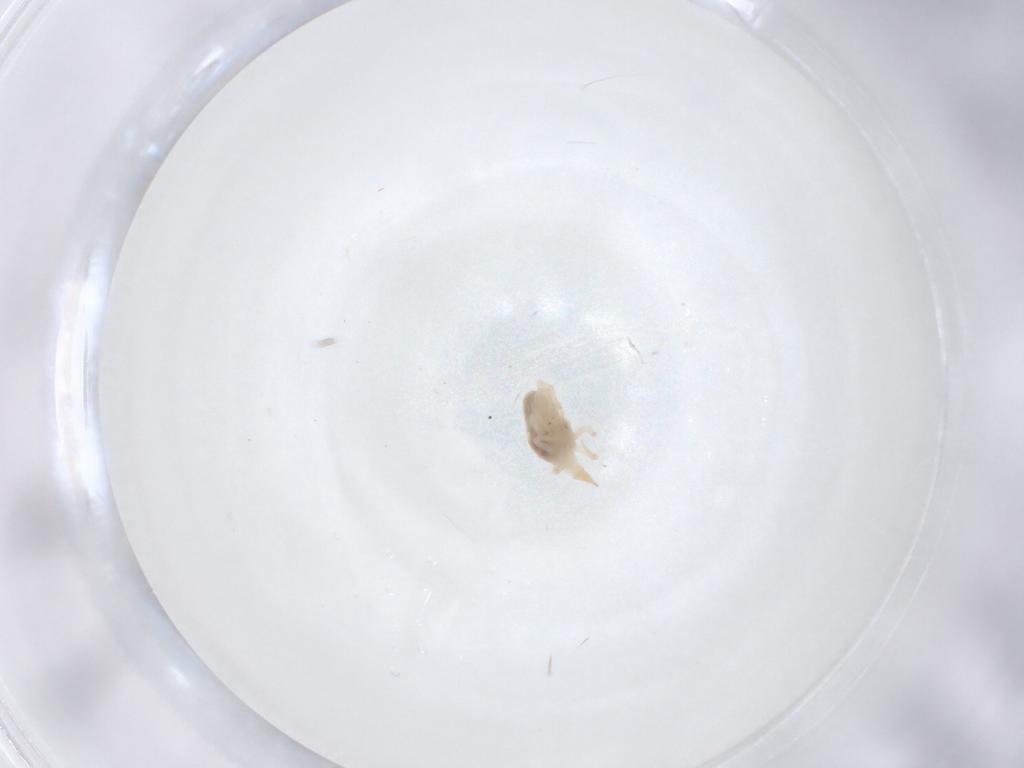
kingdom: Animalia
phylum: Arthropoda
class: Arachnida
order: Trombidiformes
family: Bdellidae
